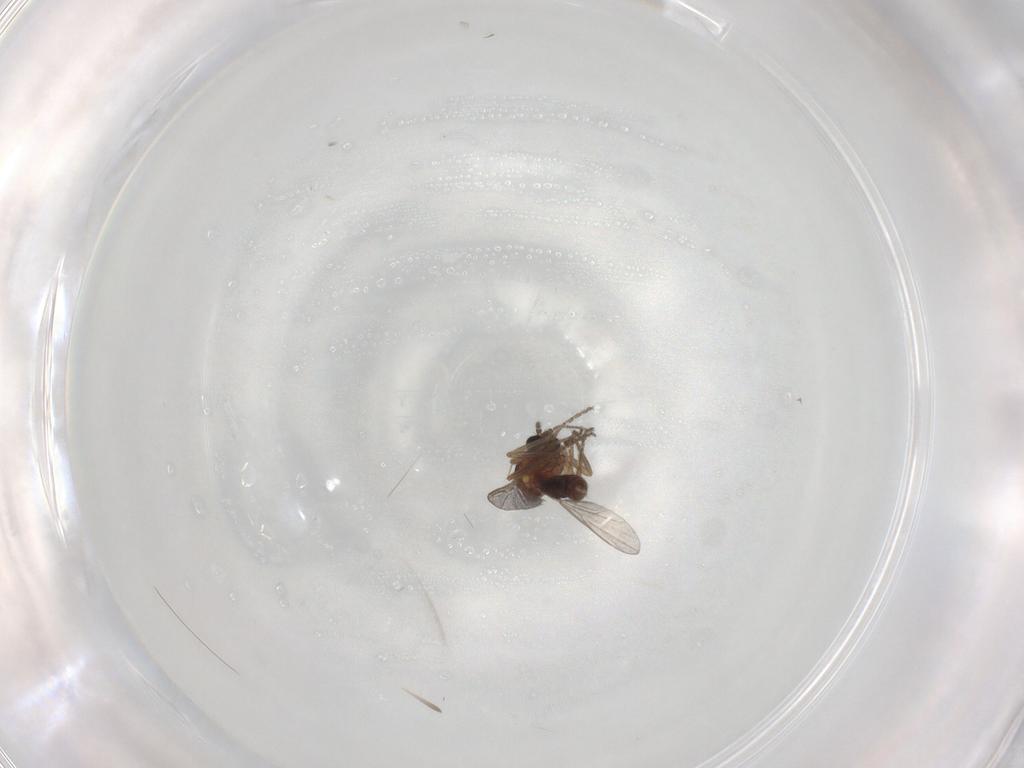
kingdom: Animalia
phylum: Arthropoda
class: Insecta
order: Diptera
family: Ceratopogonidae
